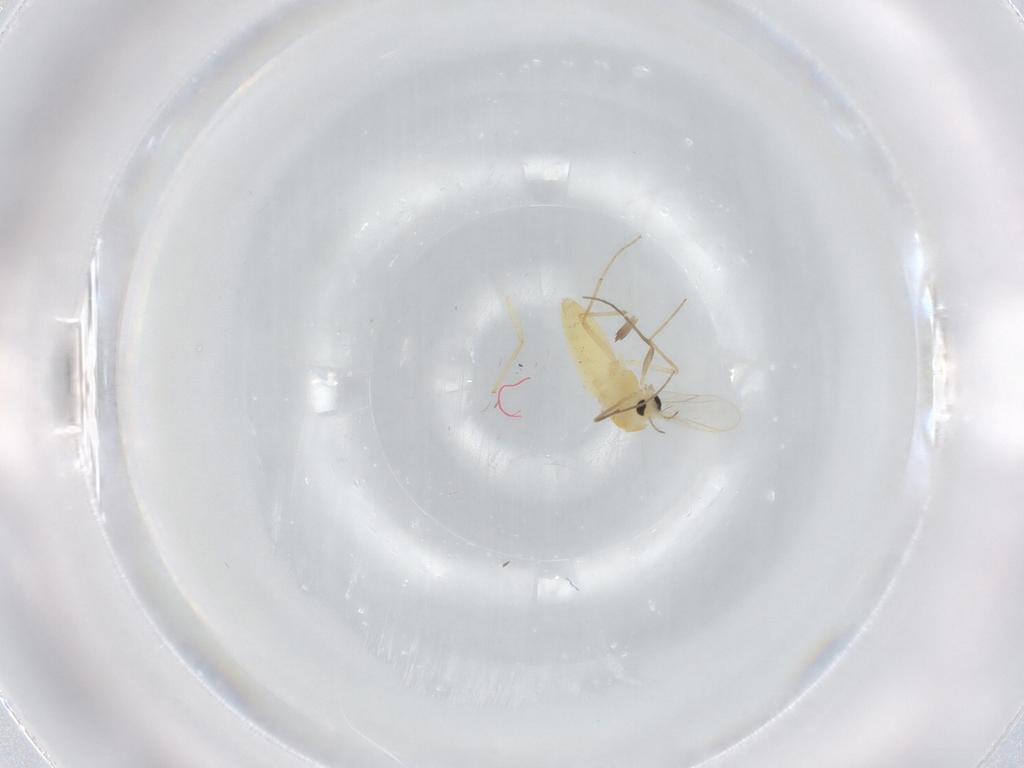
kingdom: Animalia
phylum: Arthropoda
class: Insecta
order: Diptera
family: Chironomidae
